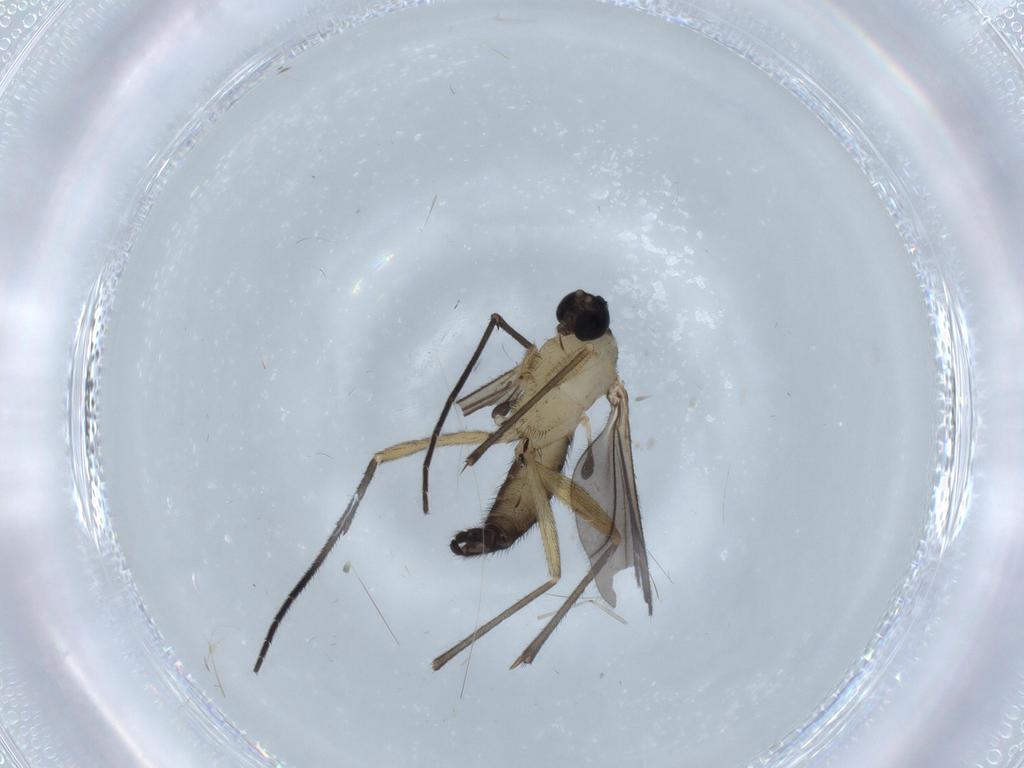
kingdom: Animalia
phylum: Arthropoda
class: Insecta
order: Diptera
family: Sciaridae
